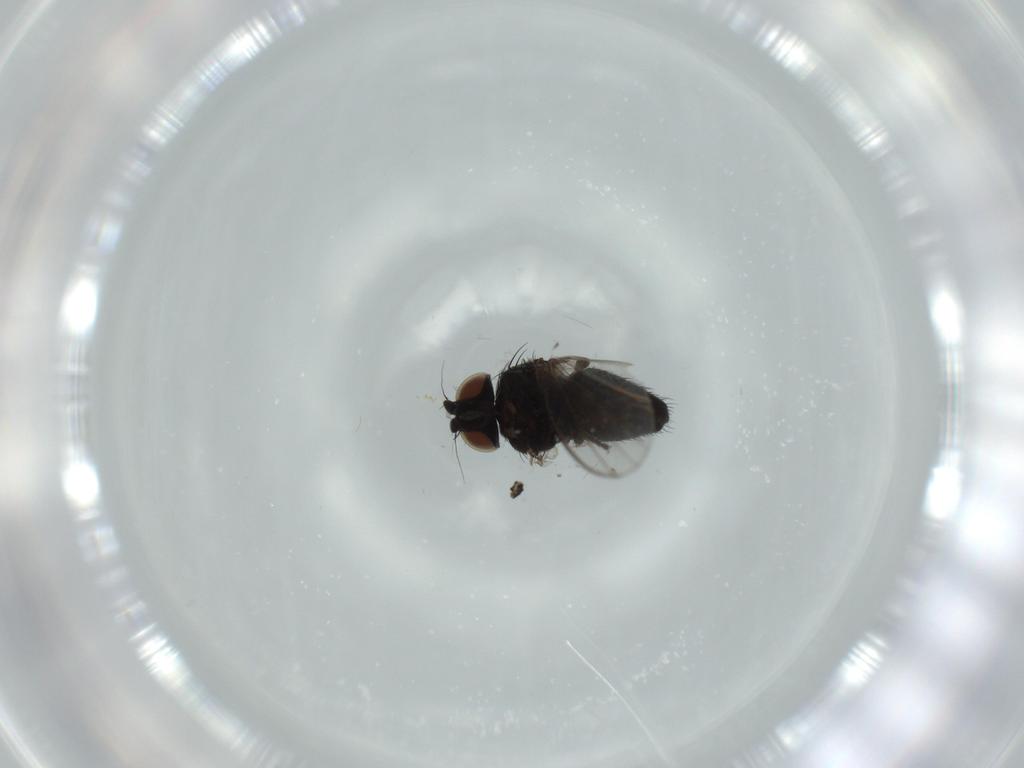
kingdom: Animalia
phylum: Arthropoda
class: Insecta
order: Diptera
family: Milichiidae
